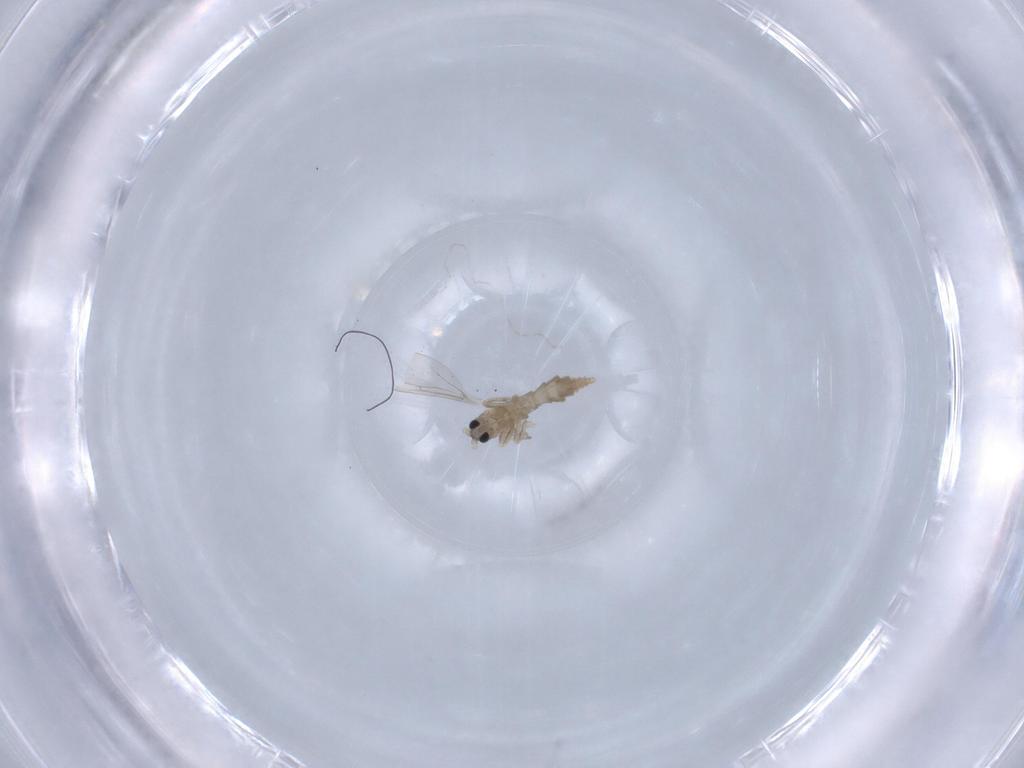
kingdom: Animalia
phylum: Arthropoda
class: Insecta
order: Diptera
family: Cecidomyiidae
